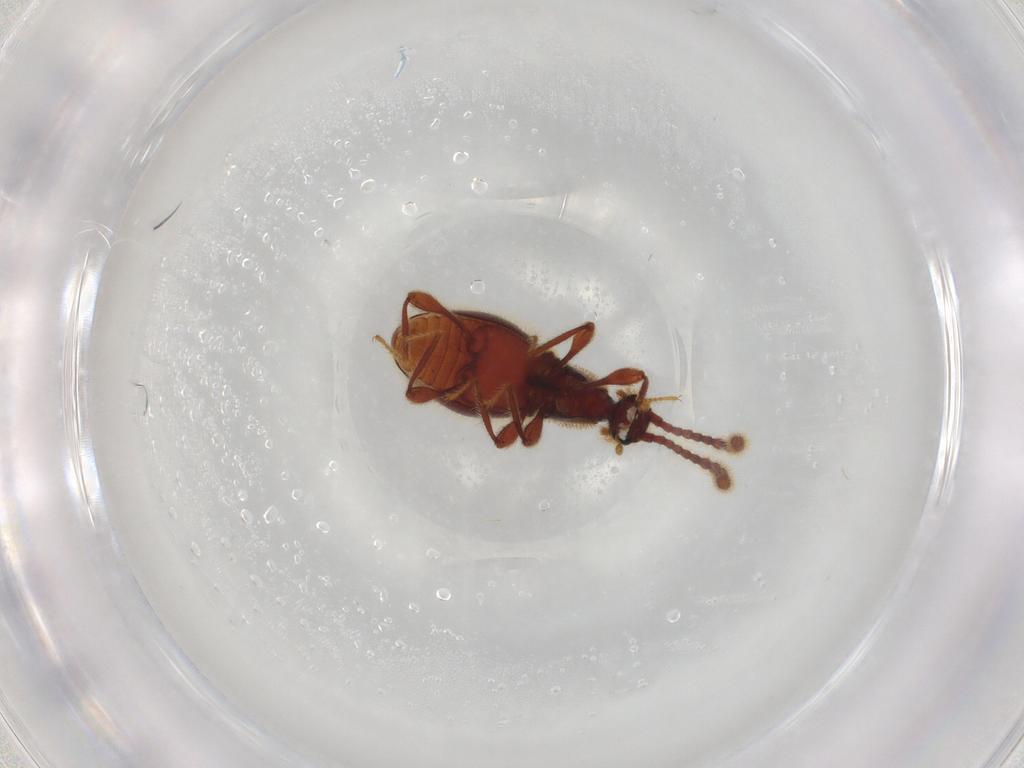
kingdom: Animalia
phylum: Arthropoda
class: Insecta
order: Coleoptera
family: Staphylinidae
